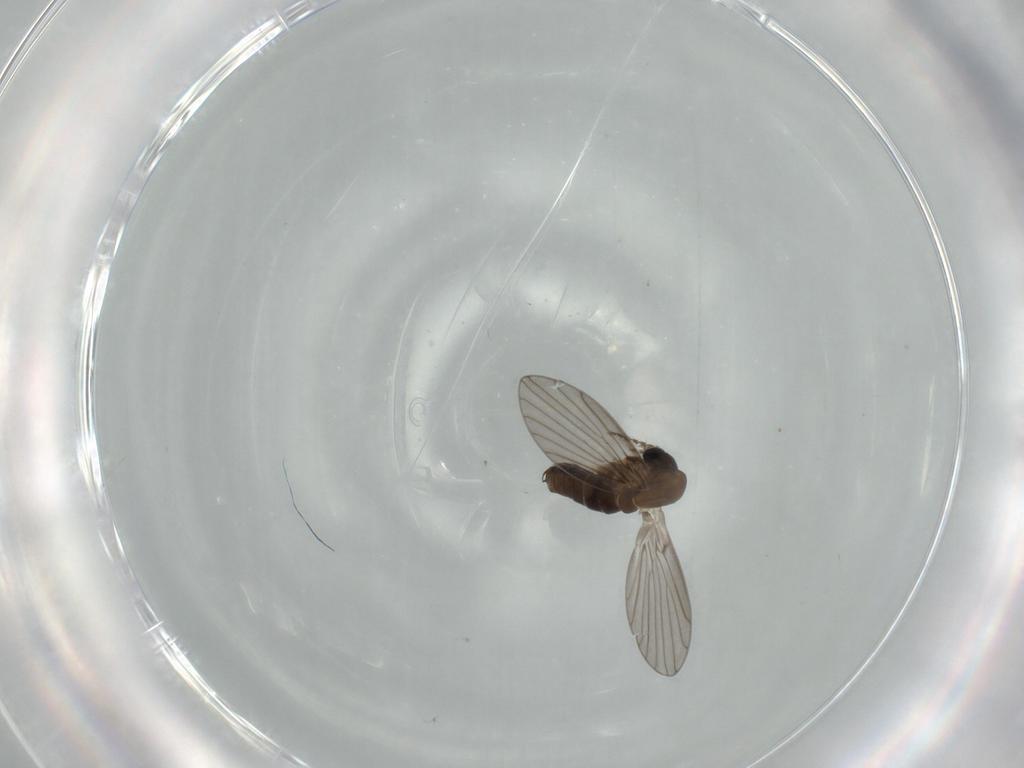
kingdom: Animalia
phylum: Arthropoda
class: Insecta
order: Diptera
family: Psychodidae
